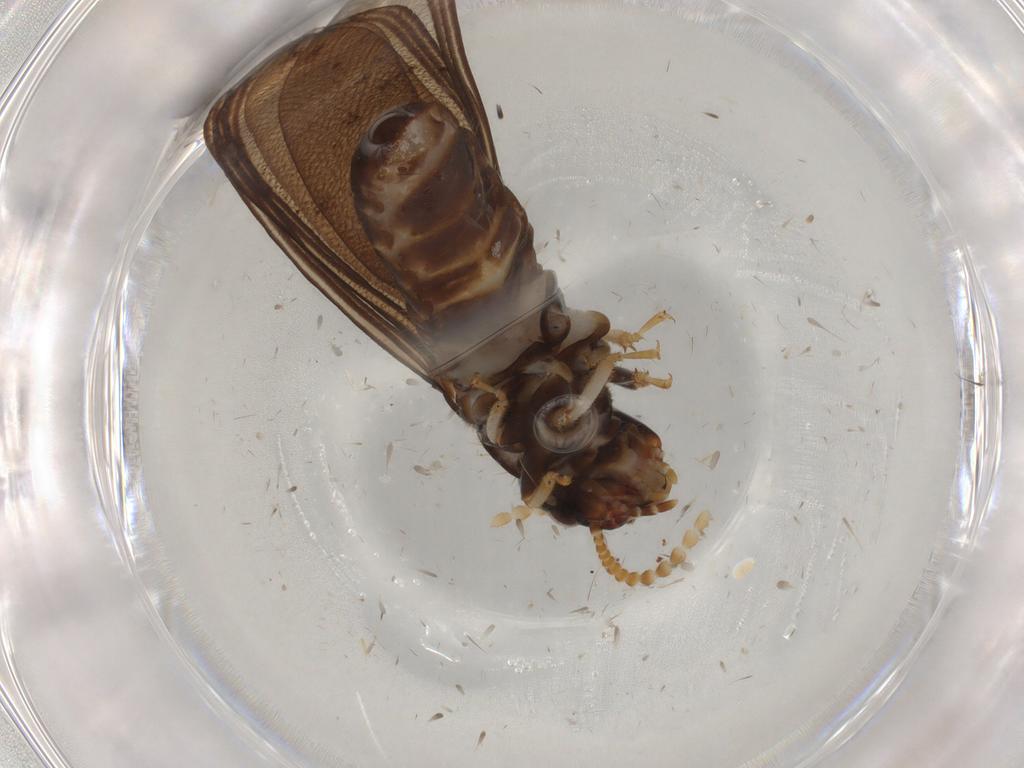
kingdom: Animalia
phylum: Arthropoda
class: Insecta
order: Blattodea
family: Kalotermitidae
